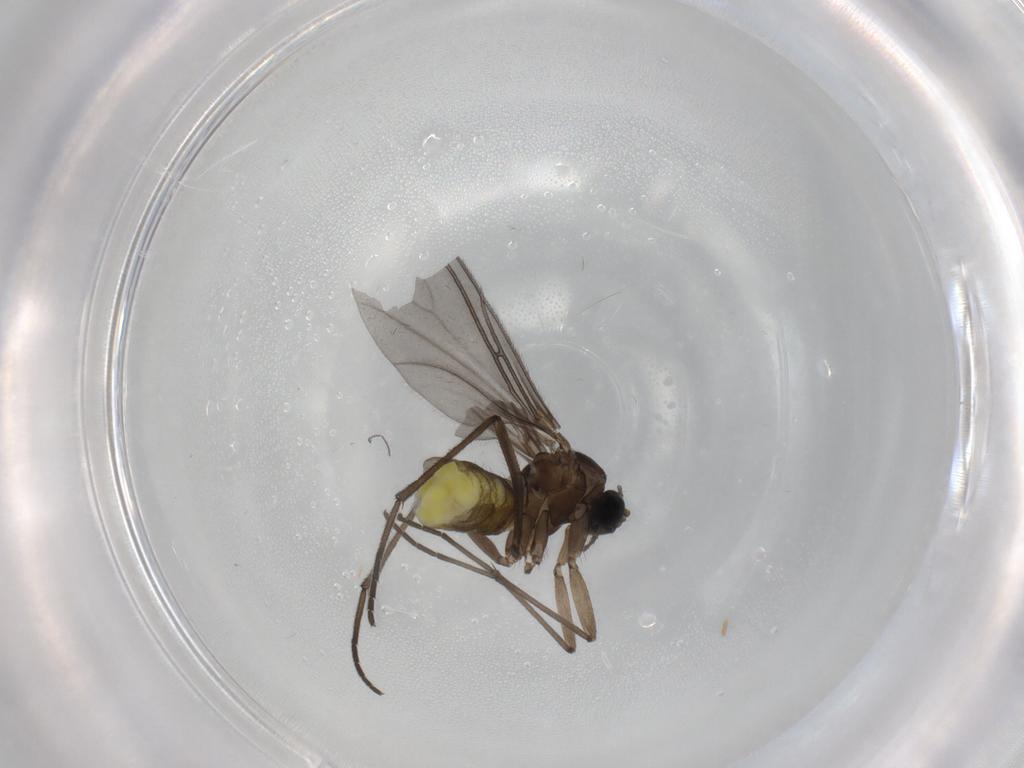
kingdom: Animalia
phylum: Arthropoda
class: Insecta
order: Diptera
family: Sciaridae
